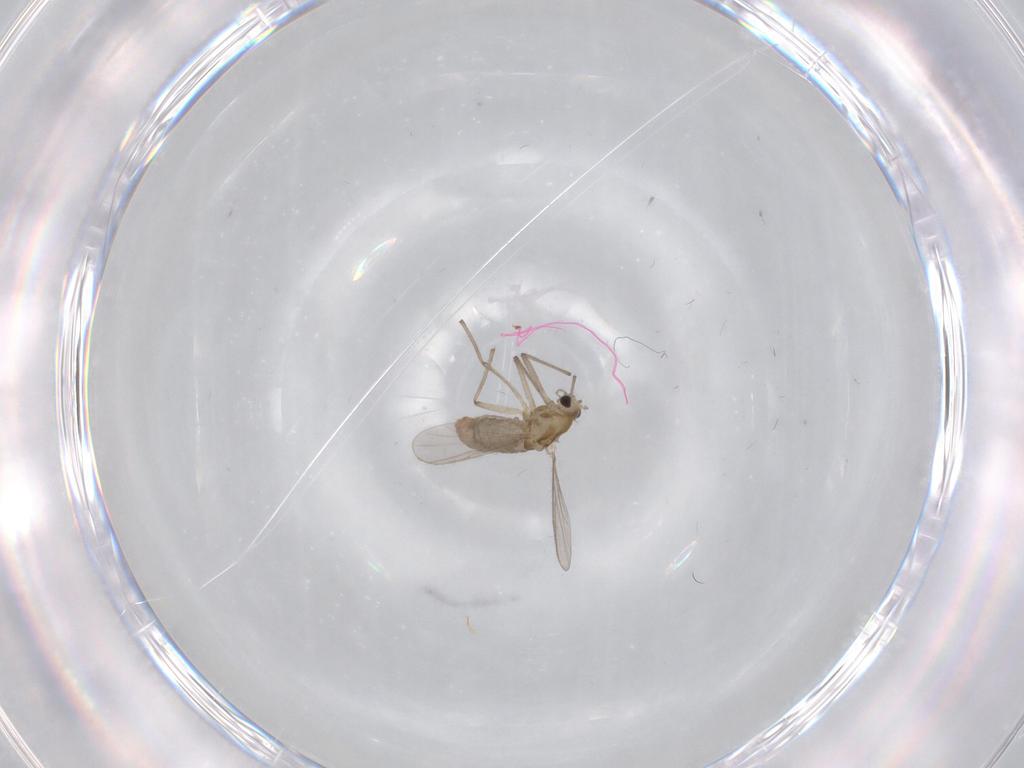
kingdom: Animalia
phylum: Arthropoda
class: Insecta
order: Diptera
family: Chironomidae
